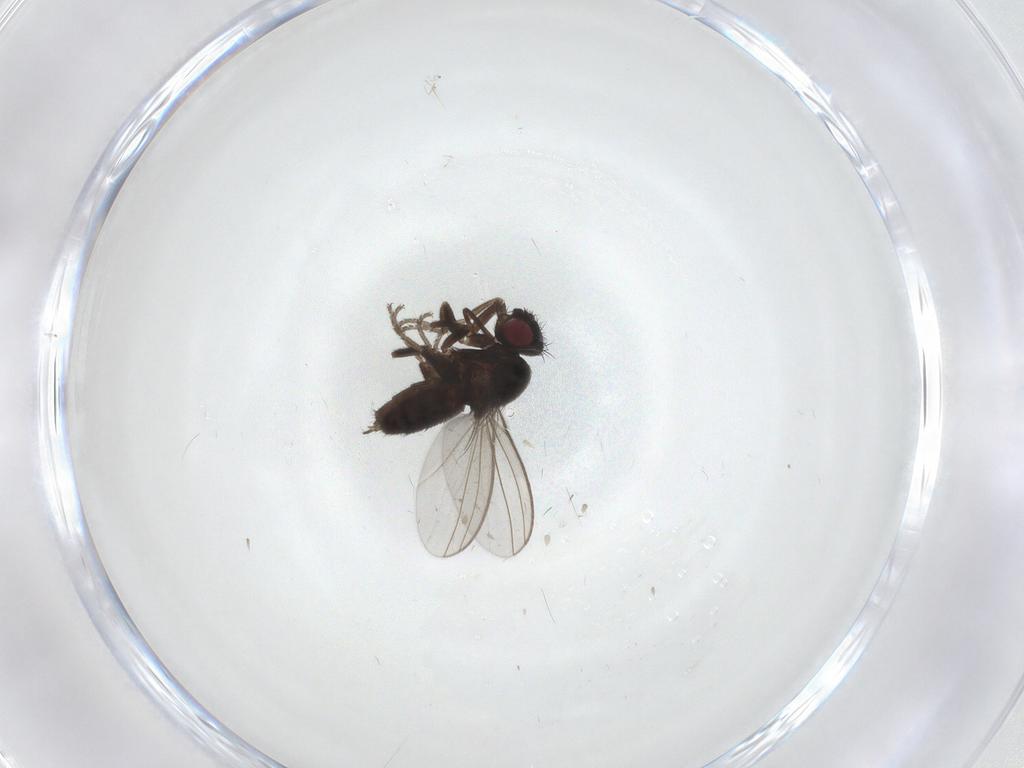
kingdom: Animalia
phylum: Arthropoda
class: Insecta
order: Diptera
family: Milichiidae
